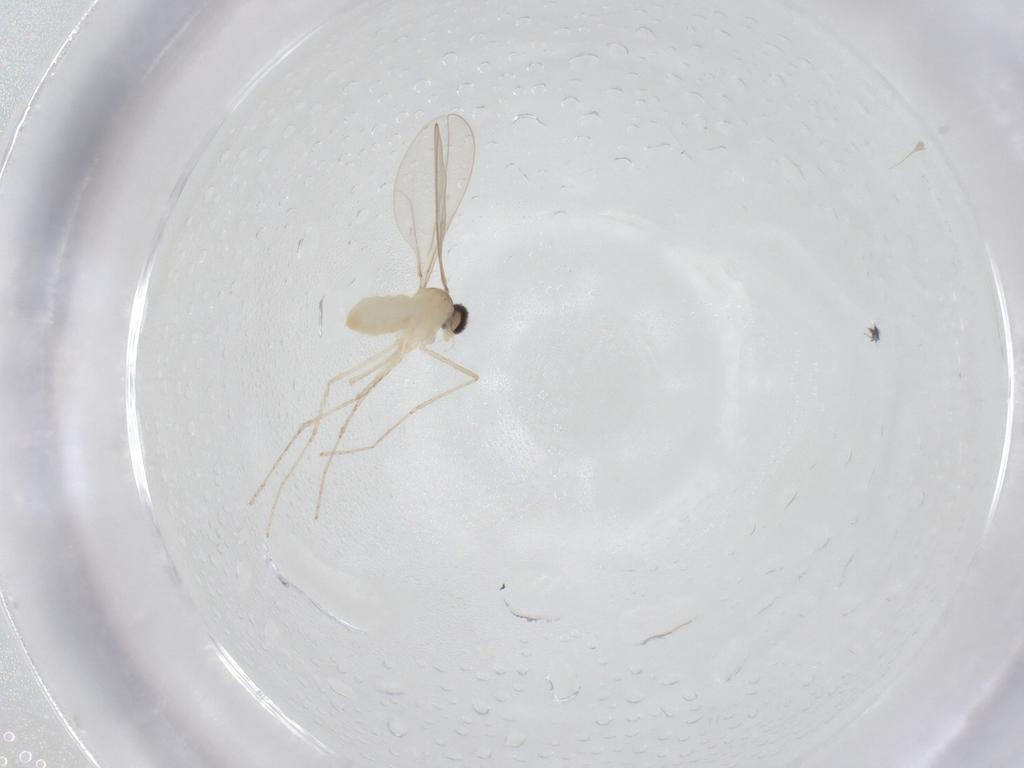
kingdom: Animalia
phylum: Arthropoda
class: Insecta
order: Diptera
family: Cecidomyiidae
